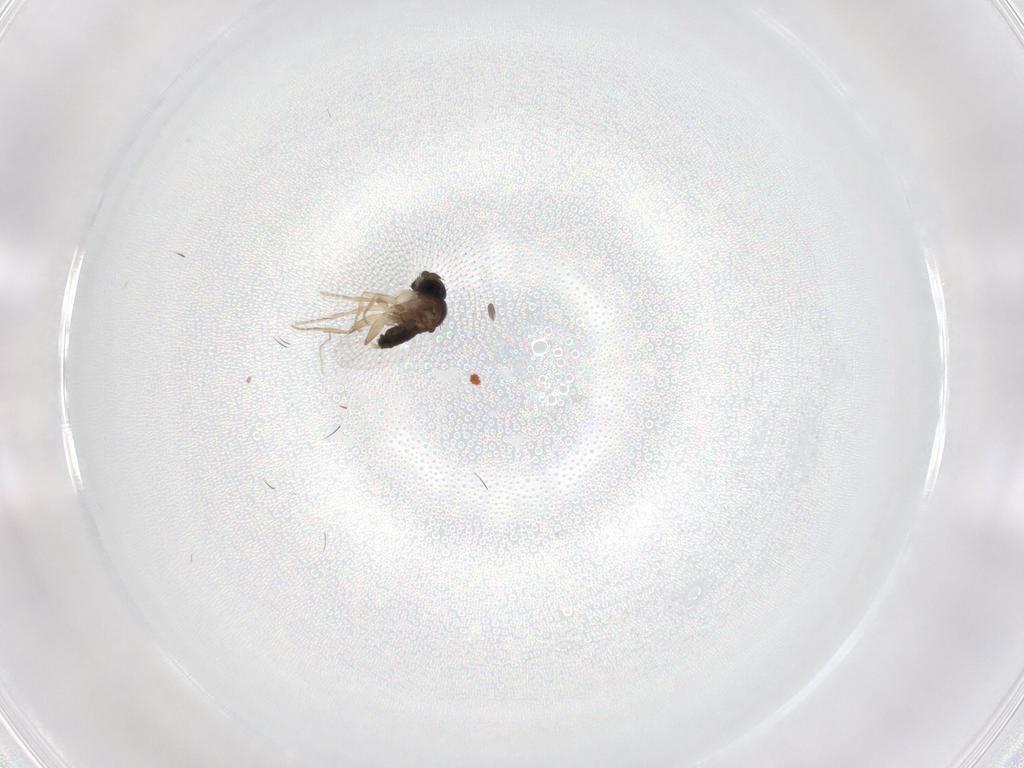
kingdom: Animalia
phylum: Arthropoda
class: Insecta
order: Diptera
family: Phoridae
